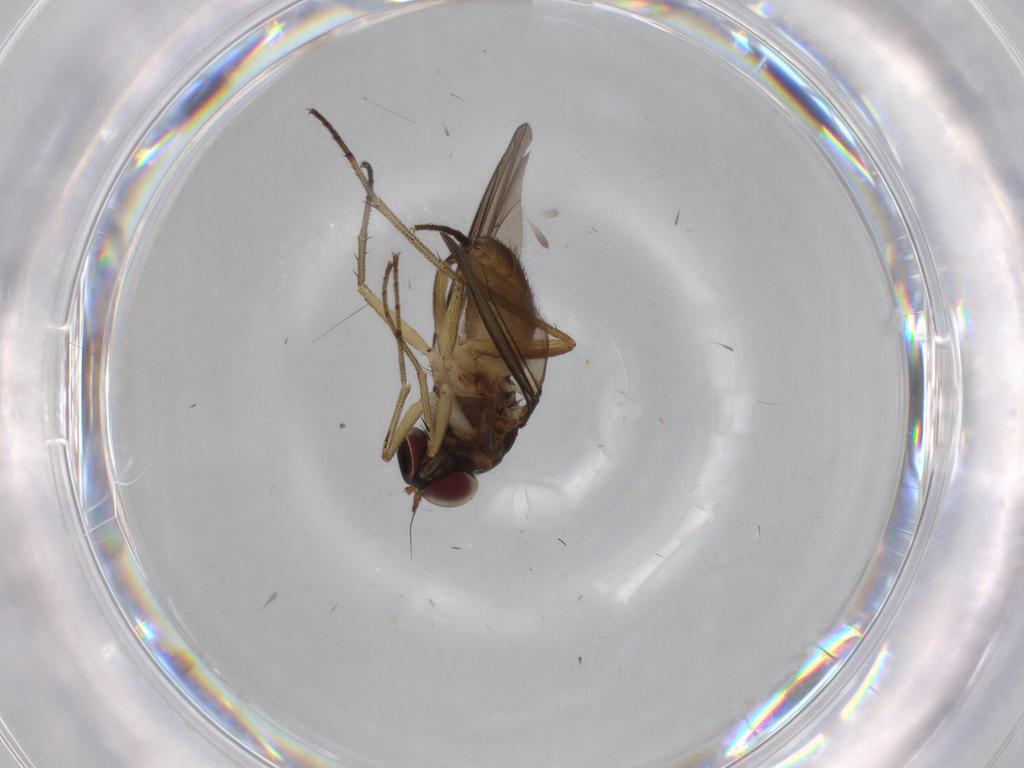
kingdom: Animalia
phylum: Arthropoda
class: Insecta
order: Diptera
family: Dolichopodidae
